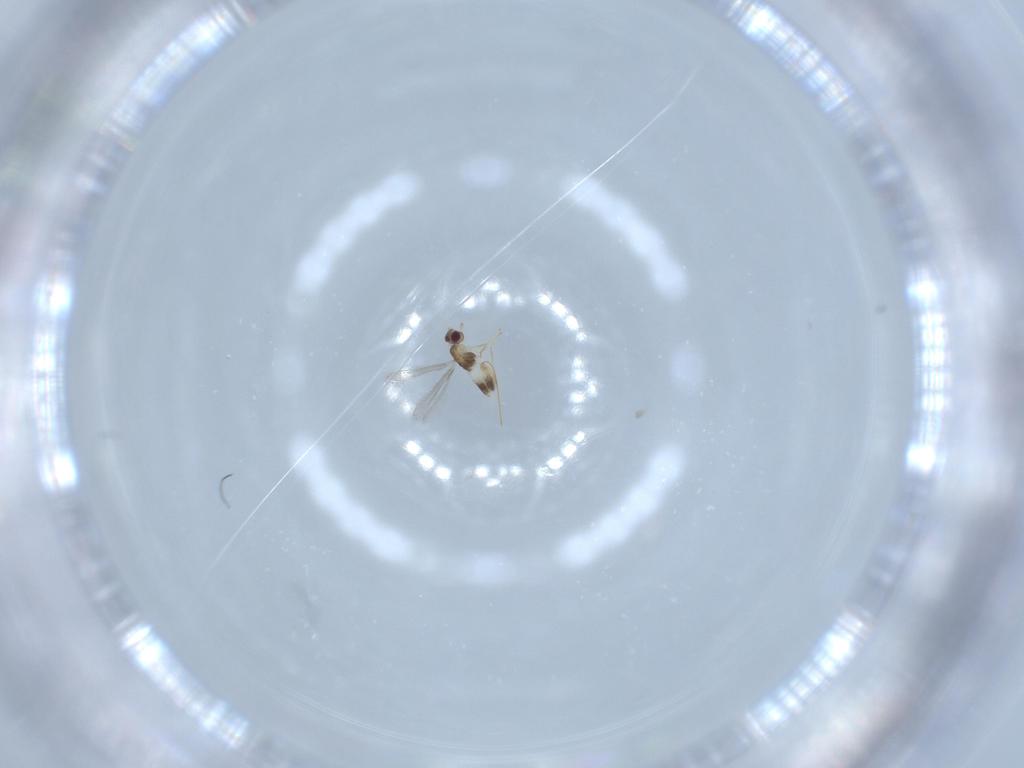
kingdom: Animalia
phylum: Arthropoda
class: Insecta
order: Hymenoptera
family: Mymaridae
